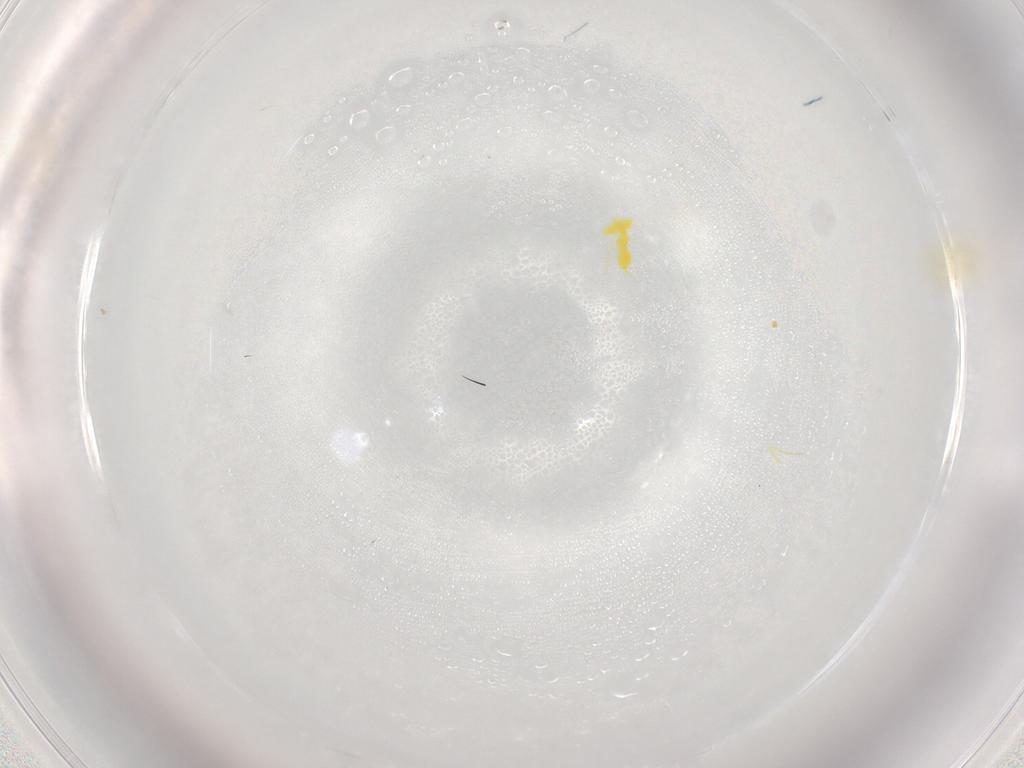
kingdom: Animalia
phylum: Arthropoda
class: Insecta
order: Hemiptera
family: Aleyrodidae
